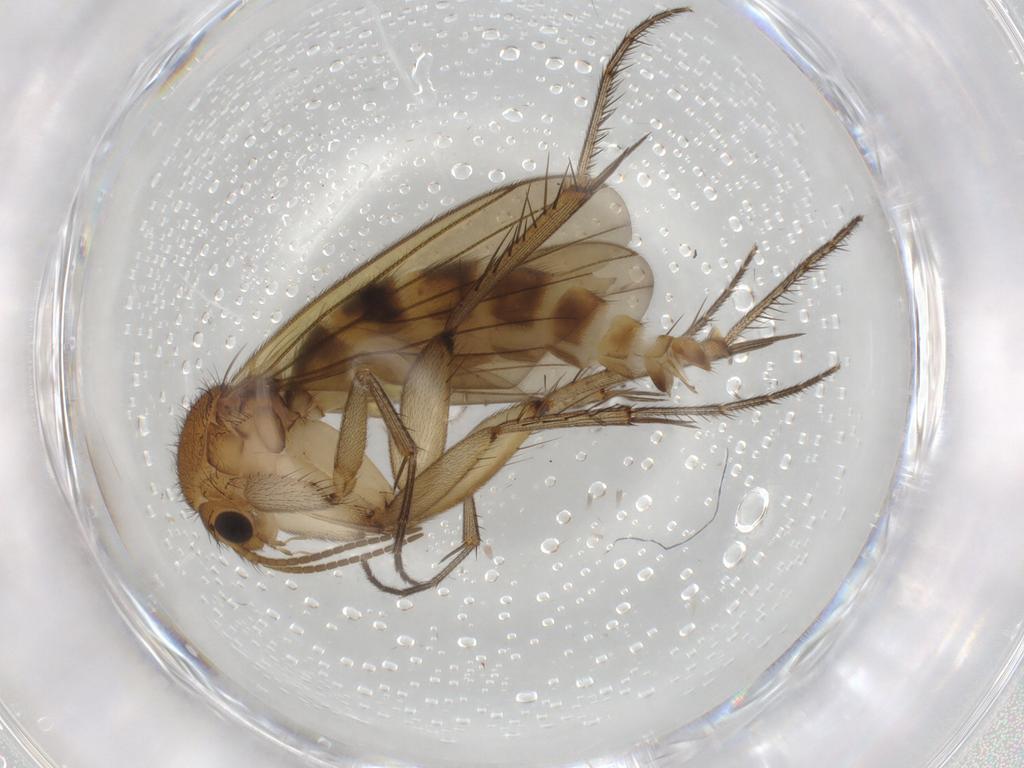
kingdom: Animalia
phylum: Arthropoda
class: Insecta
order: Diptera
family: Mycetophilidae
